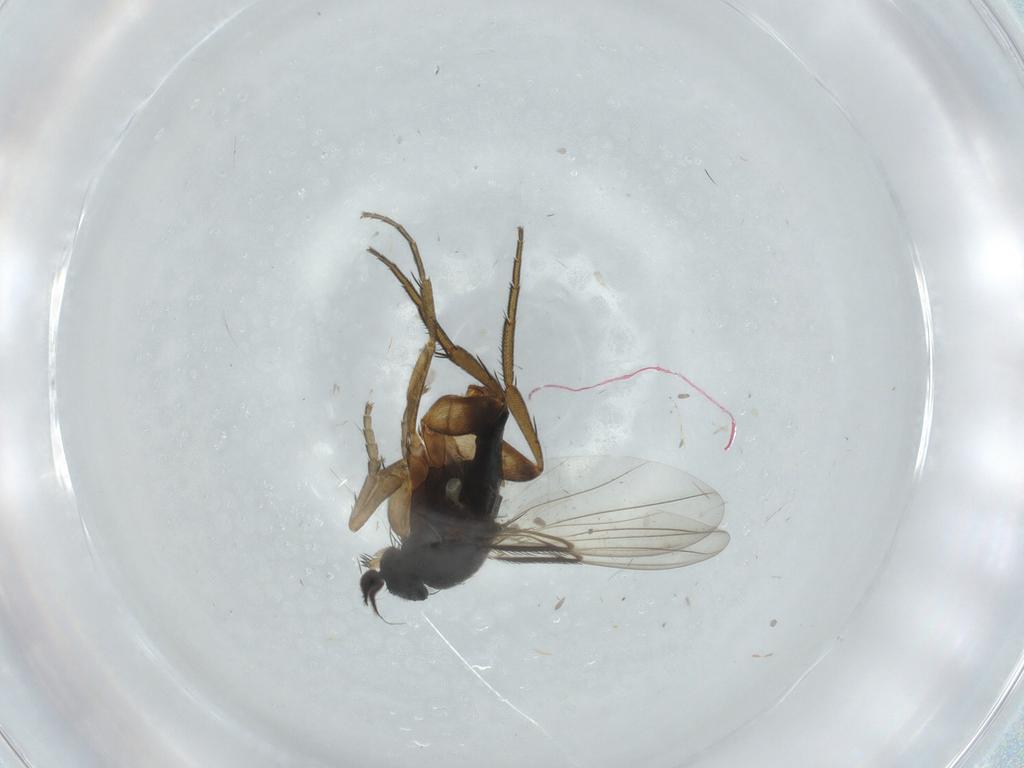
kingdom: Animalia
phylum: Arthropoda
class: Insecta
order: Diptera
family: Phoridae
